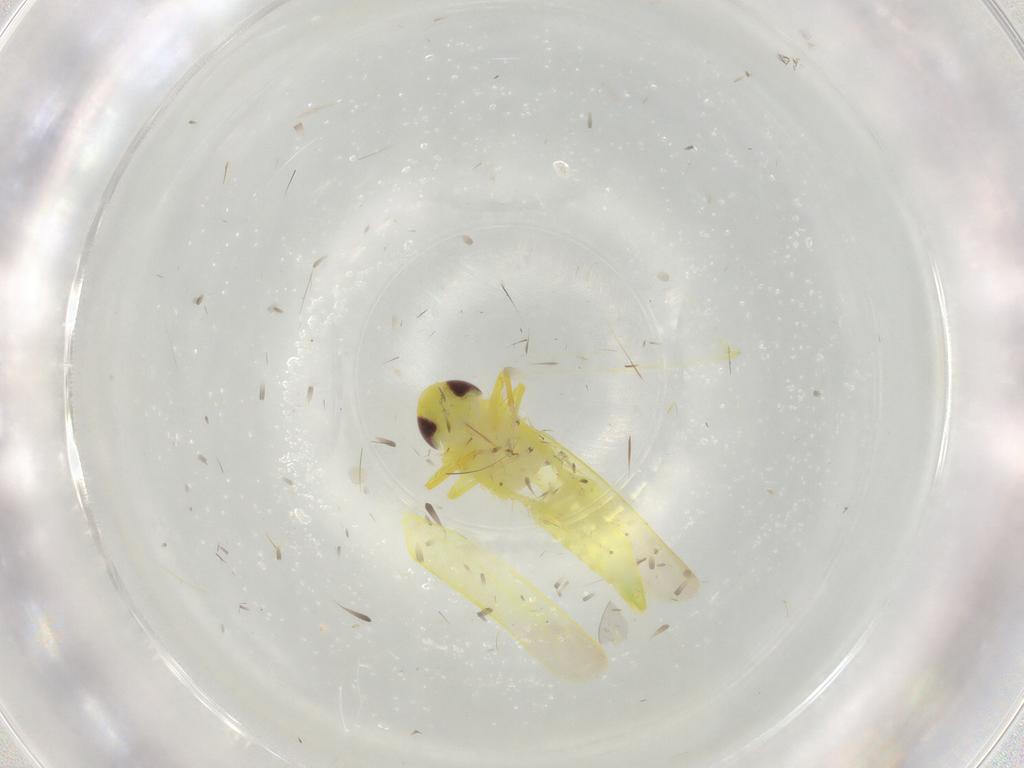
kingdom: Animalia
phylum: Arthropoda
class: Insecta
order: Hemiptera
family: Cicadellidae
